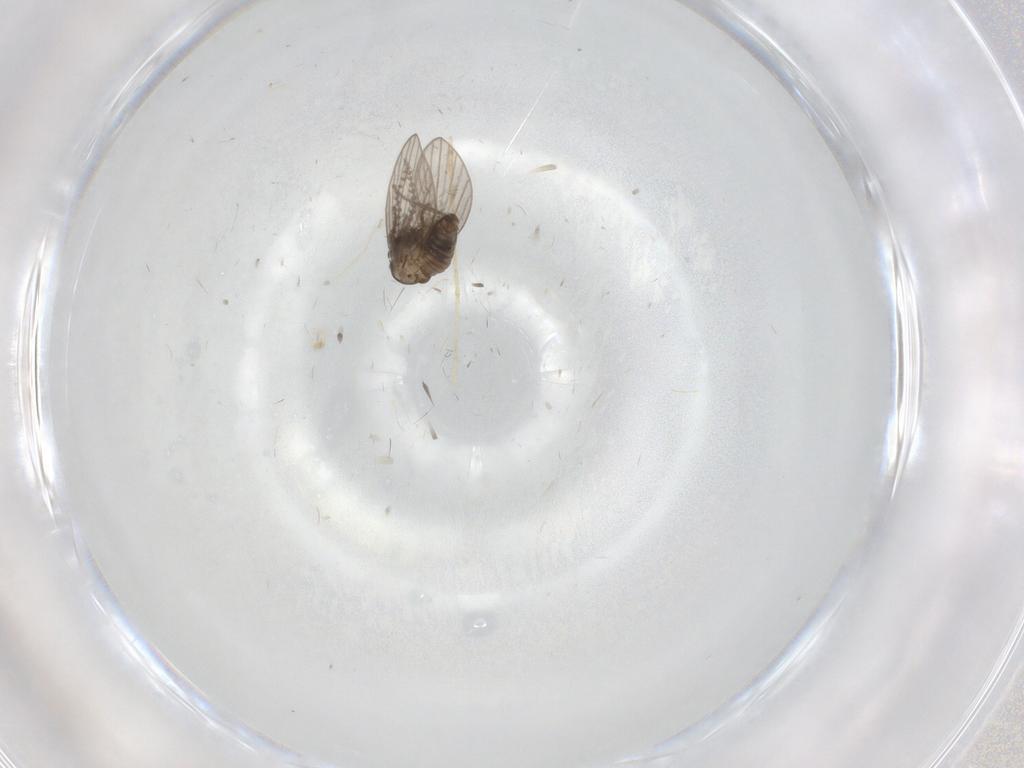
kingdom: Animalia
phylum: Arthropoda
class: Insecta
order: Diptera
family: Psychodidae
